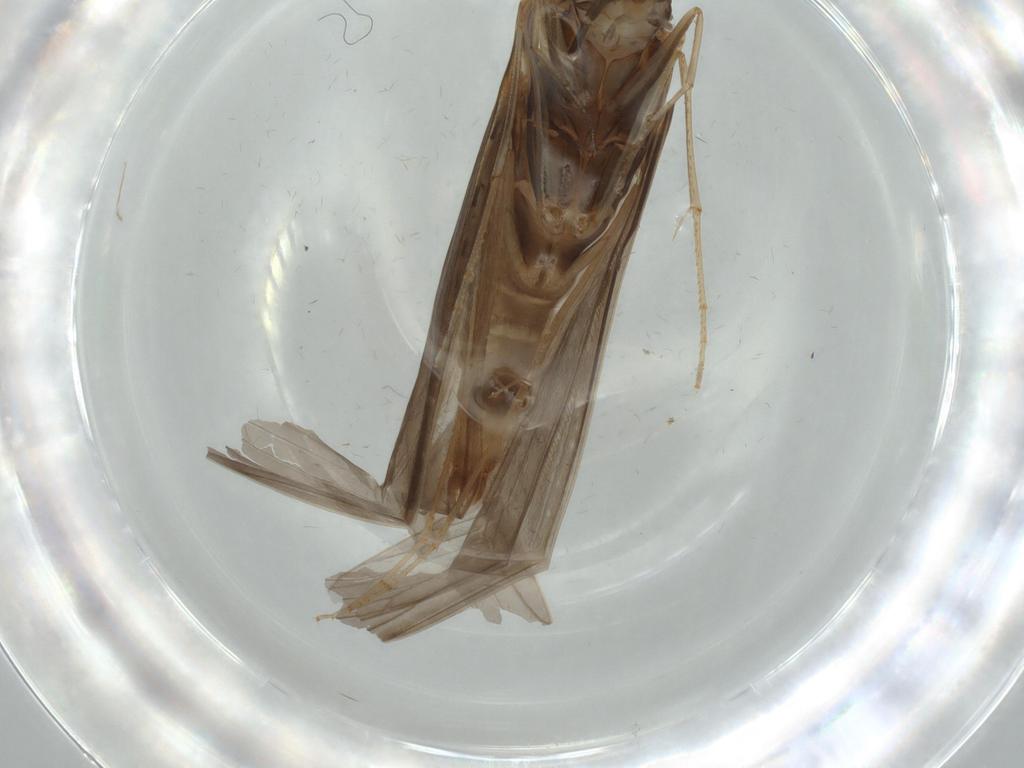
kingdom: Animalia
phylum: Arthropoda
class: Insecta
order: Trichoptera
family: Leptoceridae
